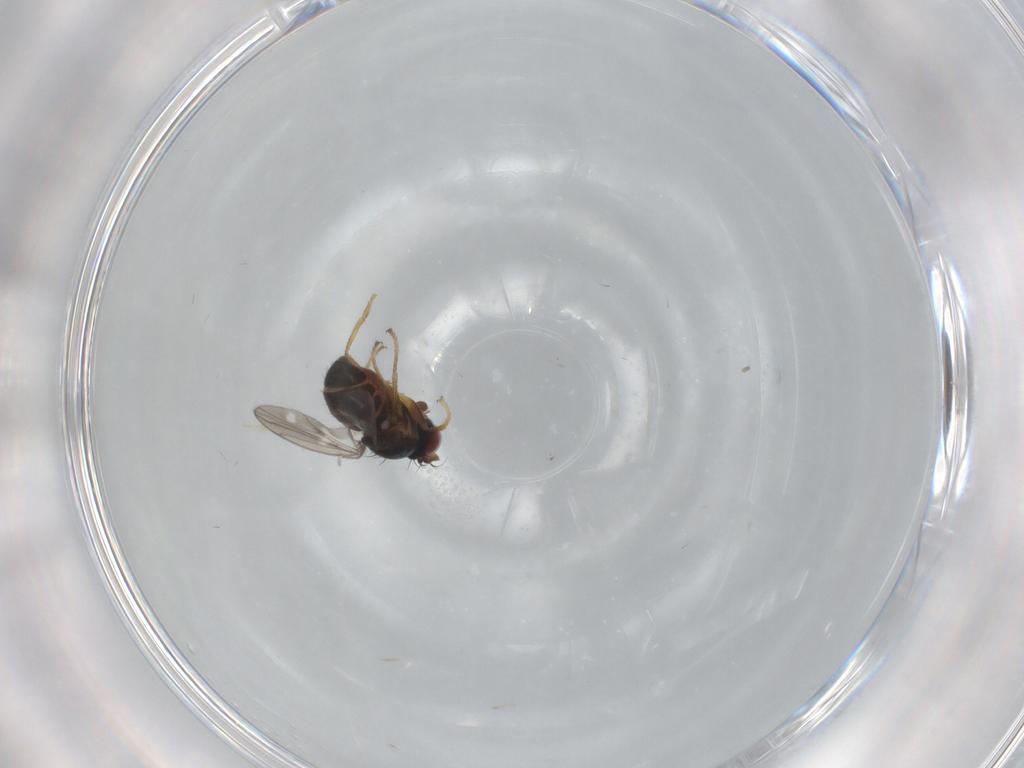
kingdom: Animalia
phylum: Arthropoda
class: Insecta
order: Diptera
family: Ephydridae
